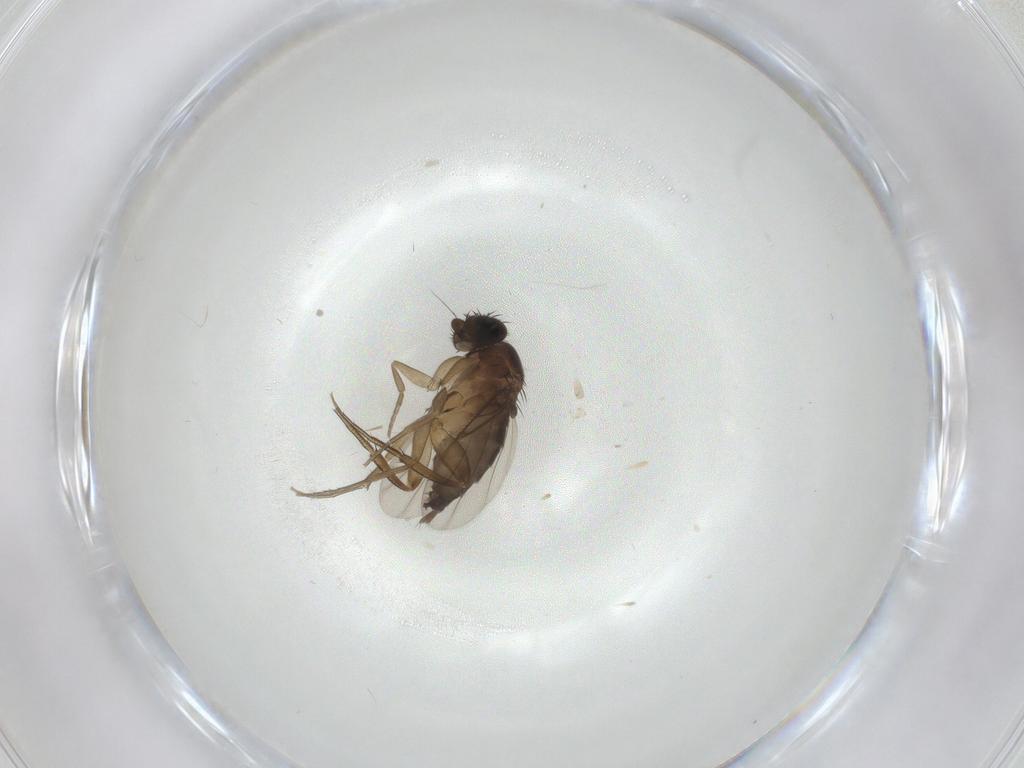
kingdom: Animalia
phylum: Arthropoda
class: Insecta
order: Diptera
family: Phoridae
